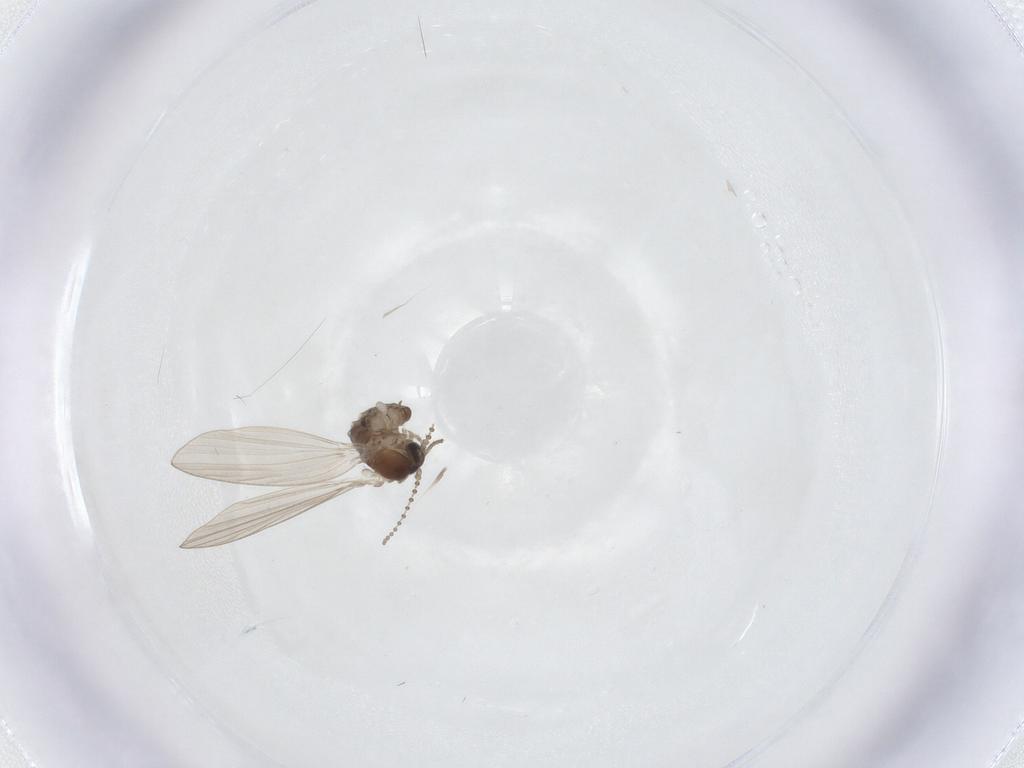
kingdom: Animalia
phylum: Arthropoda
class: Insecta
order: Diptera
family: Psychodidae
